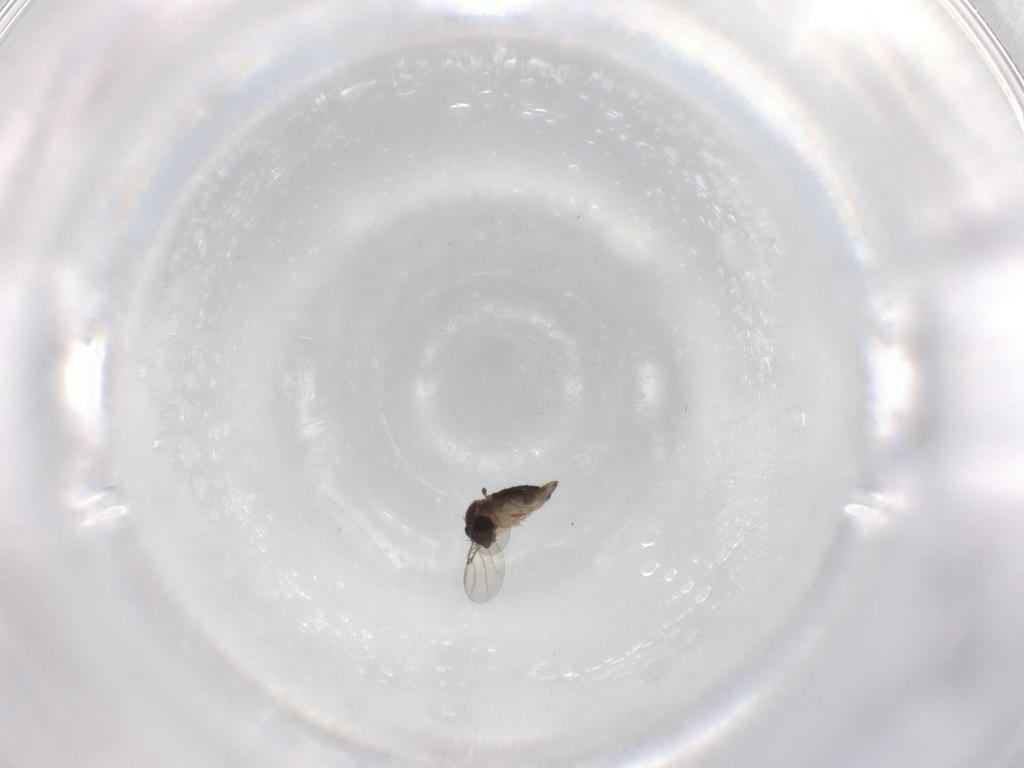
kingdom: Animalia
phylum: Arthropoda
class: Insecta
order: Diptera
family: Phoridae
